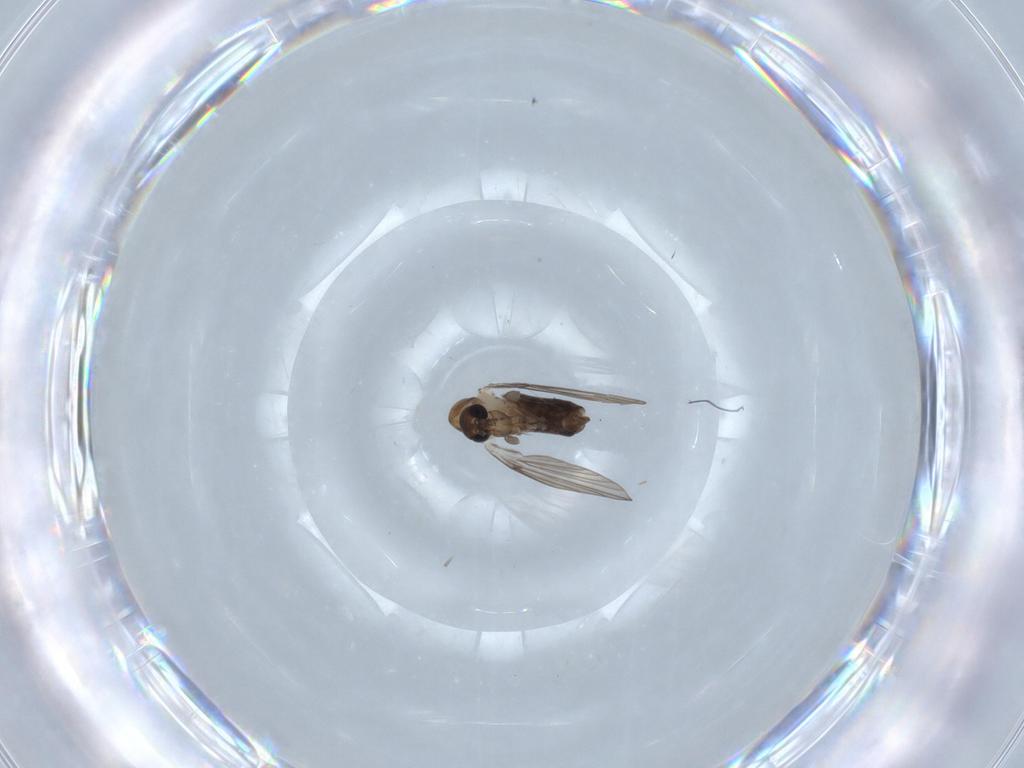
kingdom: Animalia
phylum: Arthropoda
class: Insecta
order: Diptera
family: Psychodidae
